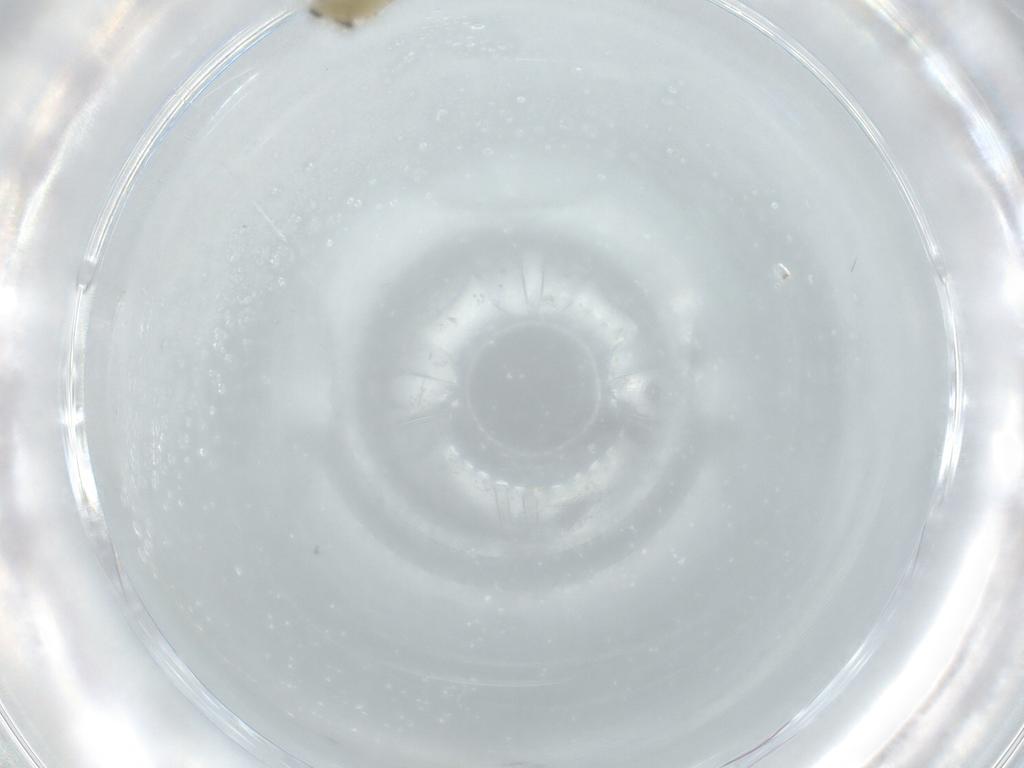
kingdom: Animalia
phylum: Arthropoda
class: Insecta
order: Diptera
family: Chironomidae
